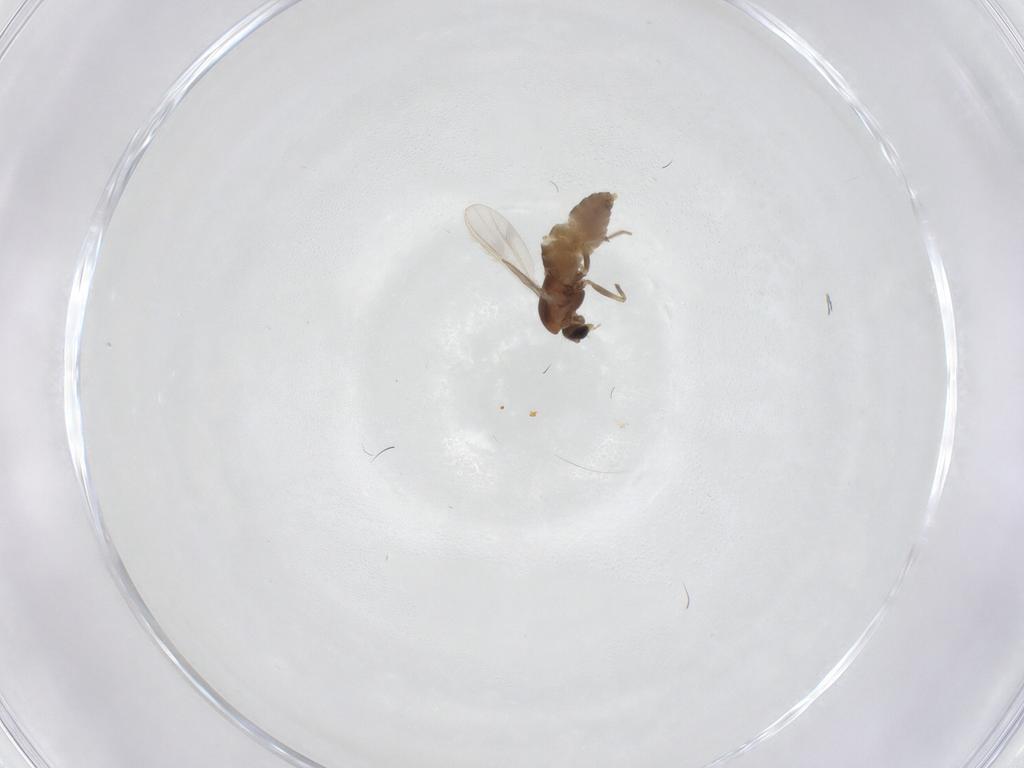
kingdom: Animalia
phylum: Arthropoda
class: Insecta
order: Diptera
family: Chironomidae
